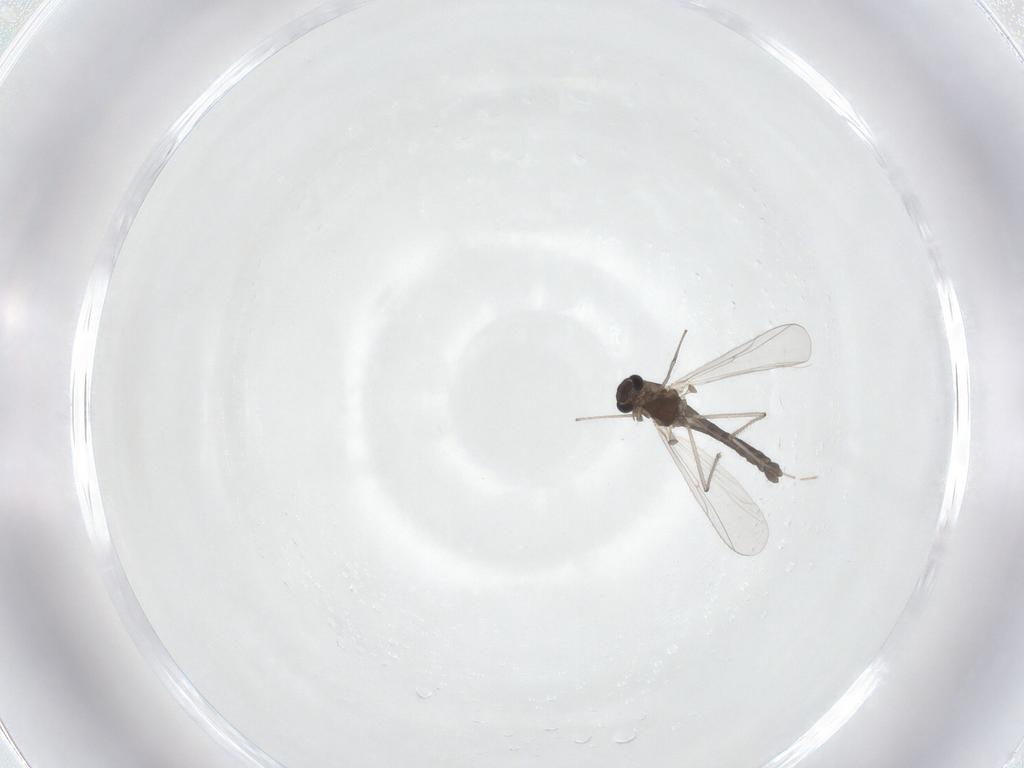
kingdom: Animalia
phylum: Arthropoda
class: Insecta
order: Diptera
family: Chironomidae
